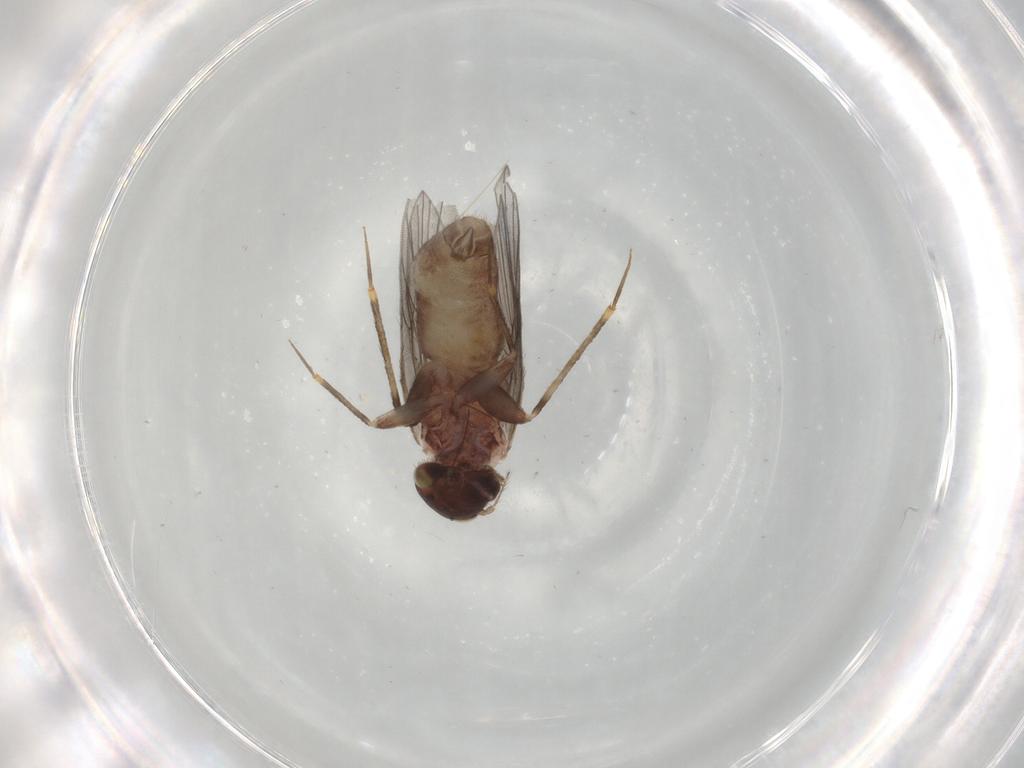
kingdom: Animalia
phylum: Arthropoda
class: Insecta
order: Psocodea
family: Lepidopsocidae
